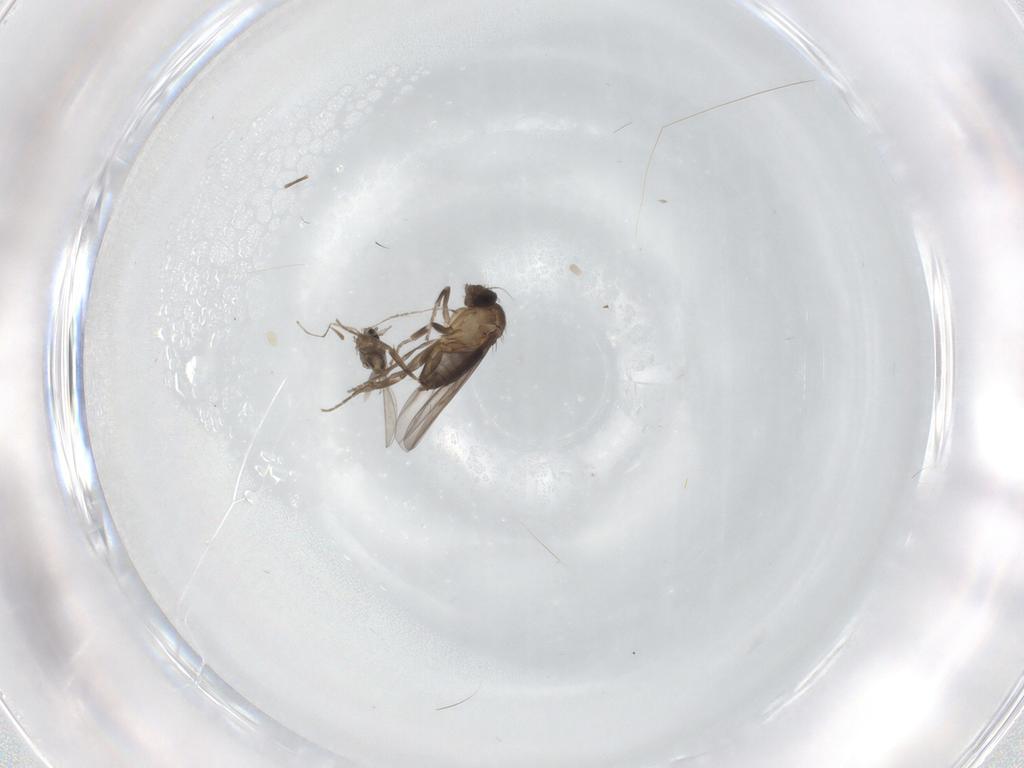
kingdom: Animalia
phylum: Arthropoda
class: Insecta
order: Diptera
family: Cecidomyiidae
